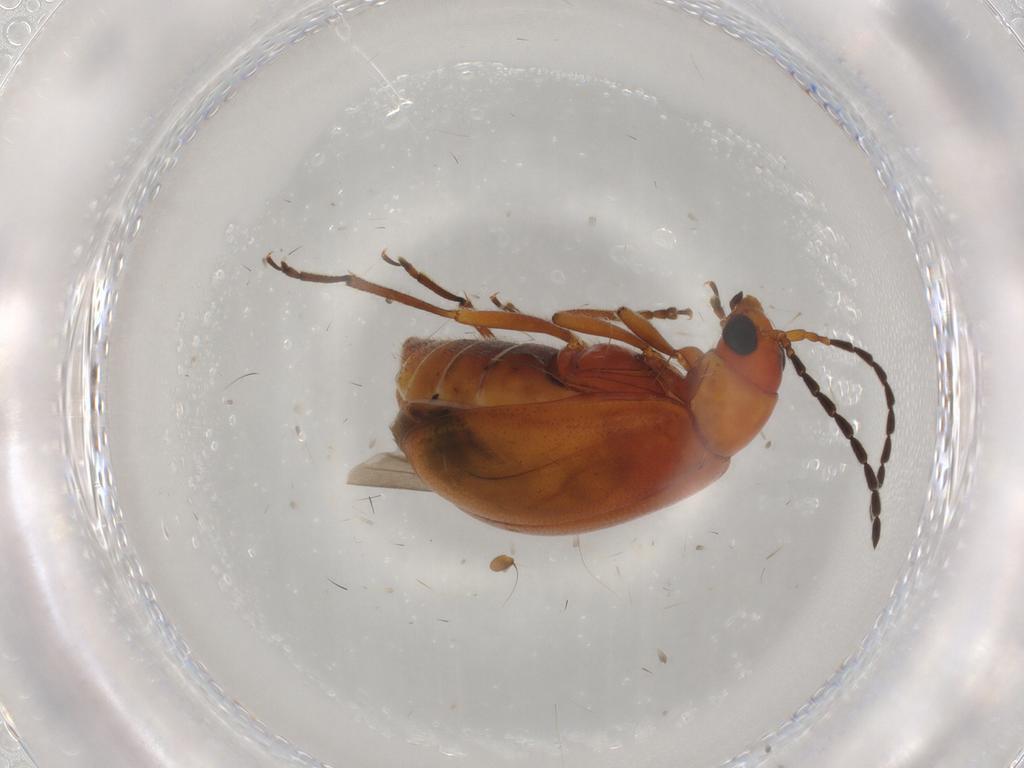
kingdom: Animalia
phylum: Arthropoda
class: Insecta
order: Coleoptera
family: Chrysomelidae
